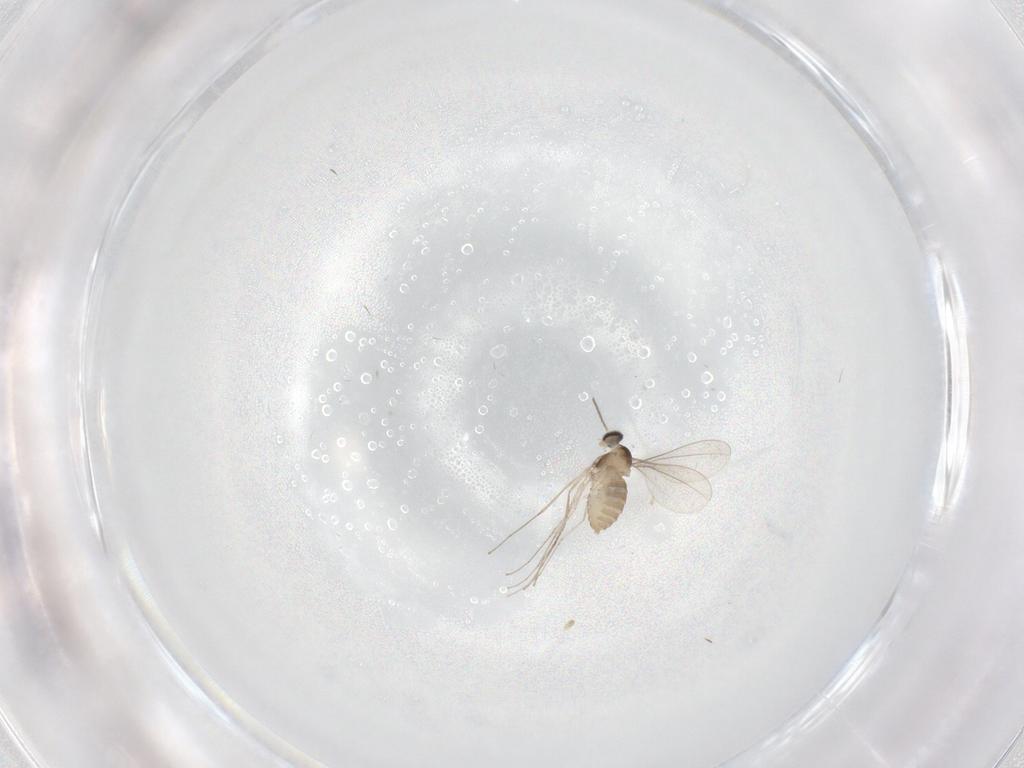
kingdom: Animalia
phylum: Arthropoda
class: Insecta
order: Diptera
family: Cecidomyiidae
